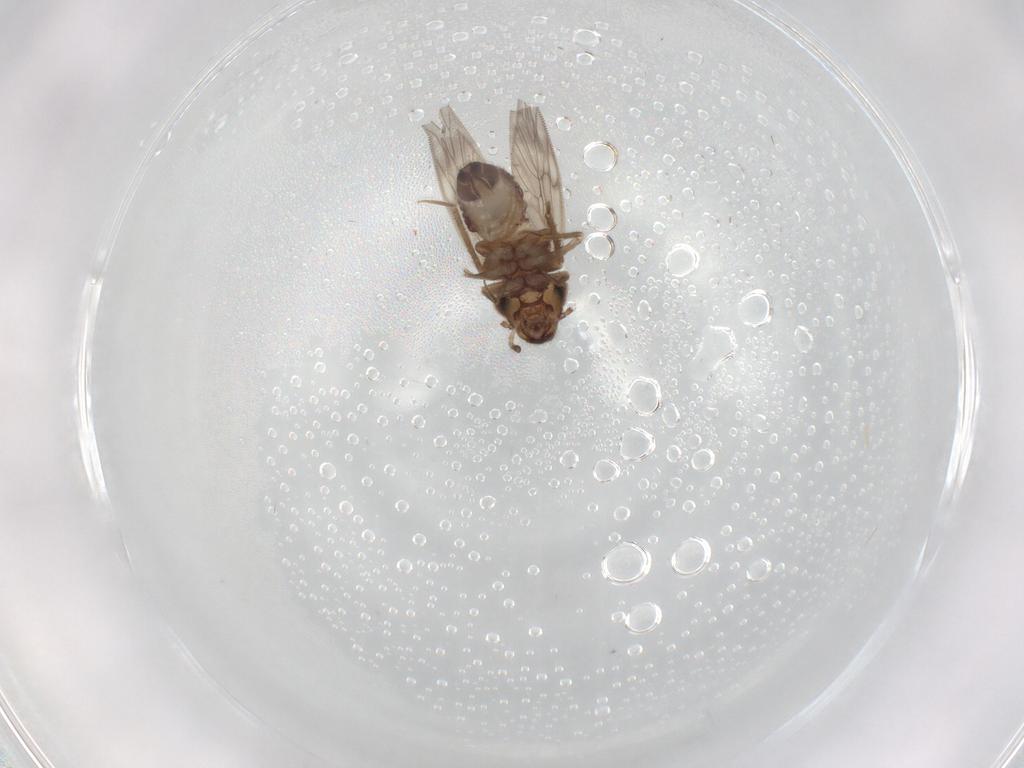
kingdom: Animalia
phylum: Arthropoda
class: Insecta
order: Psocodea
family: Lepidopsocidae
